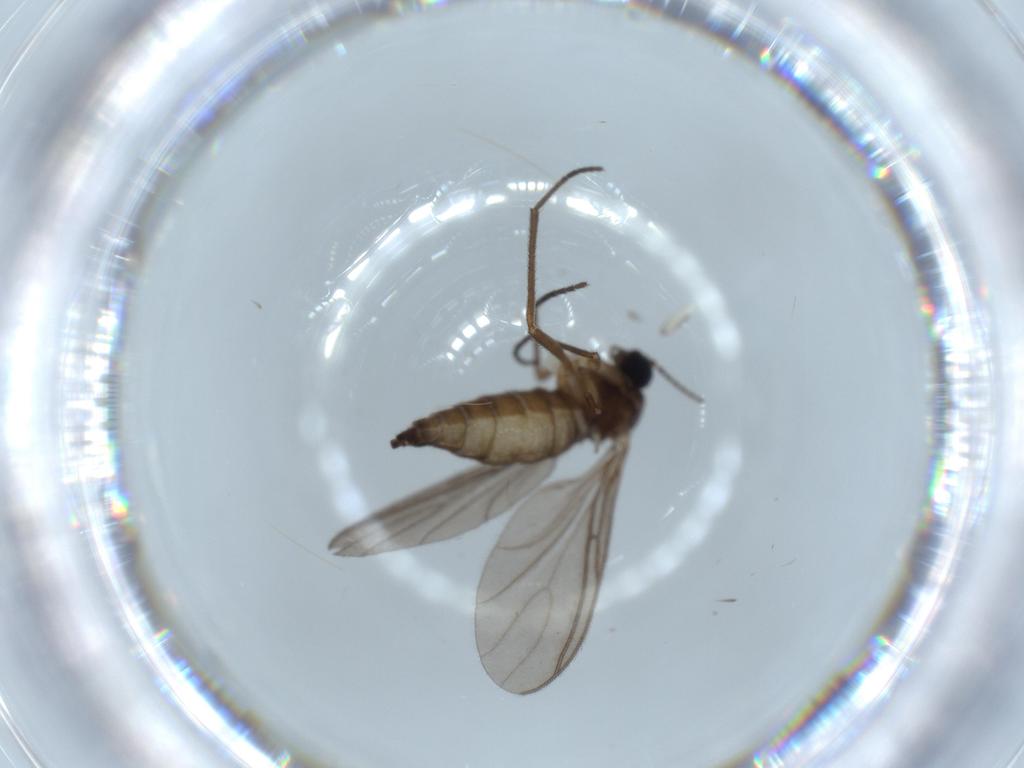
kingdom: Animalia
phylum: Arthropoda
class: Insecta
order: Diptera
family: Sciaridae
